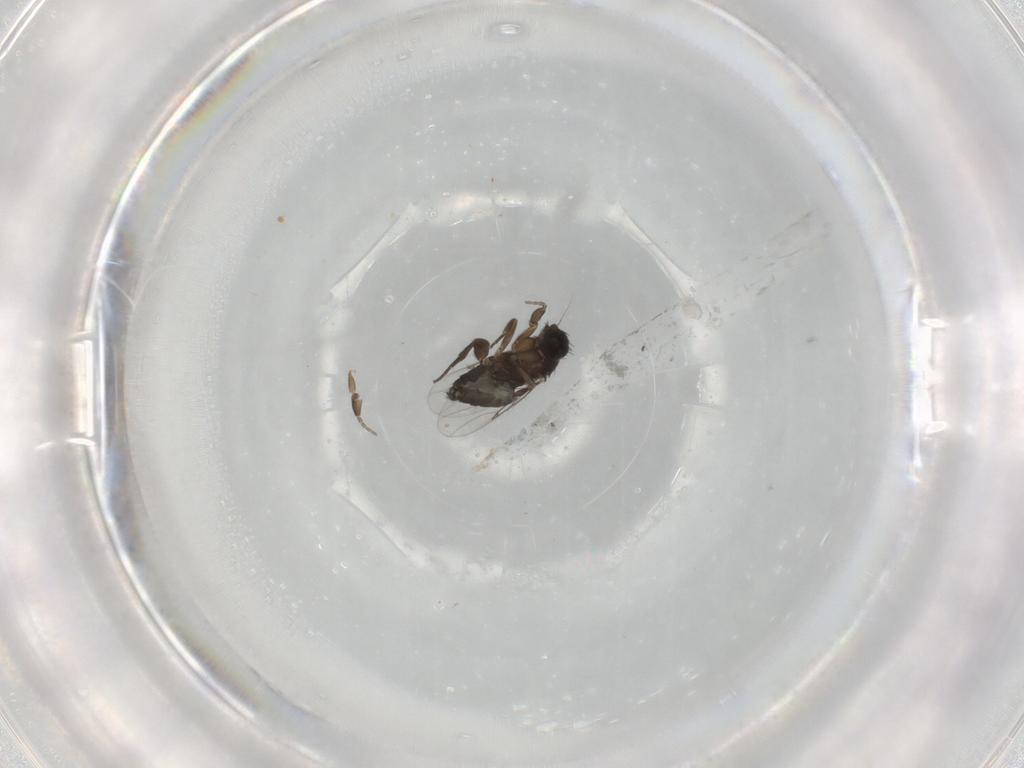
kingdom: Animalia
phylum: Arthropoda
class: Insecta
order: Diptera
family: Phoridae
